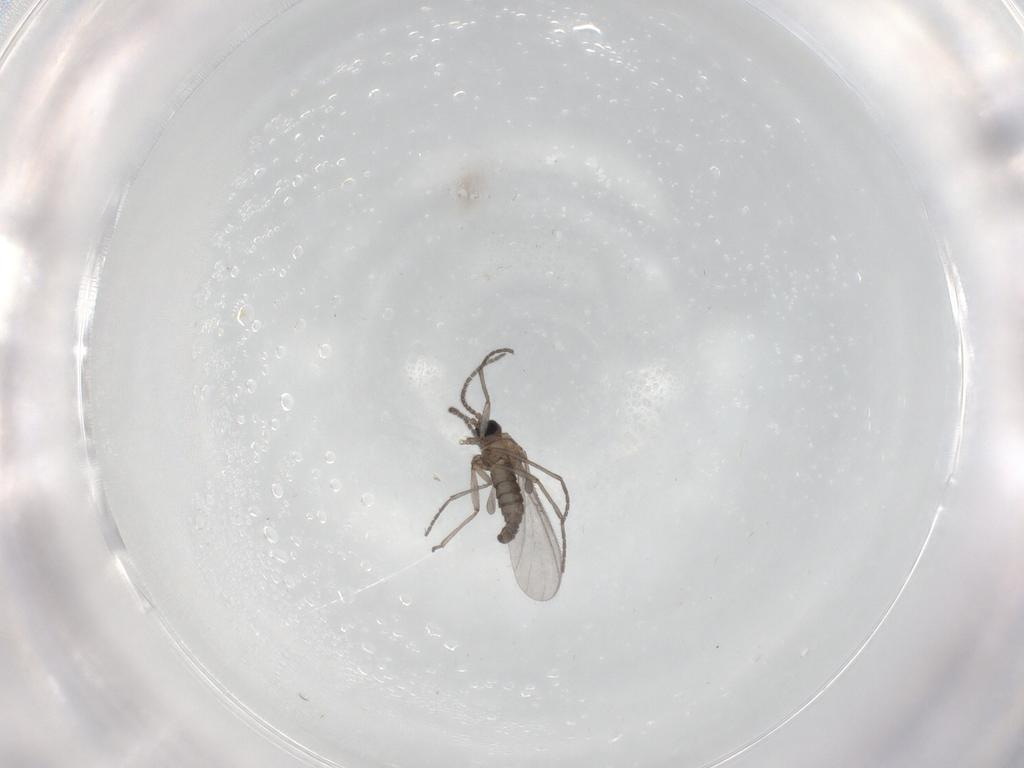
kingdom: Animalia
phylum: Arthropoda
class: Insecta
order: Diptera
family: Sciaridae
